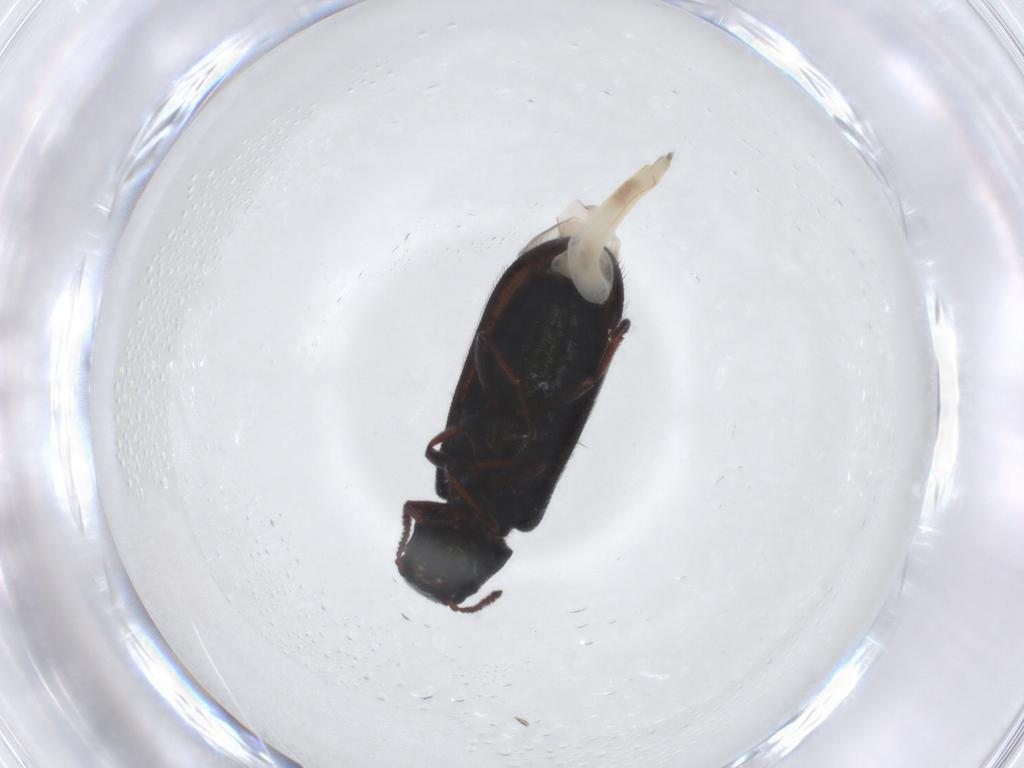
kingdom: Animalia
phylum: Arthropoda
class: Insecta
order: Coleoptera
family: Melyridae
